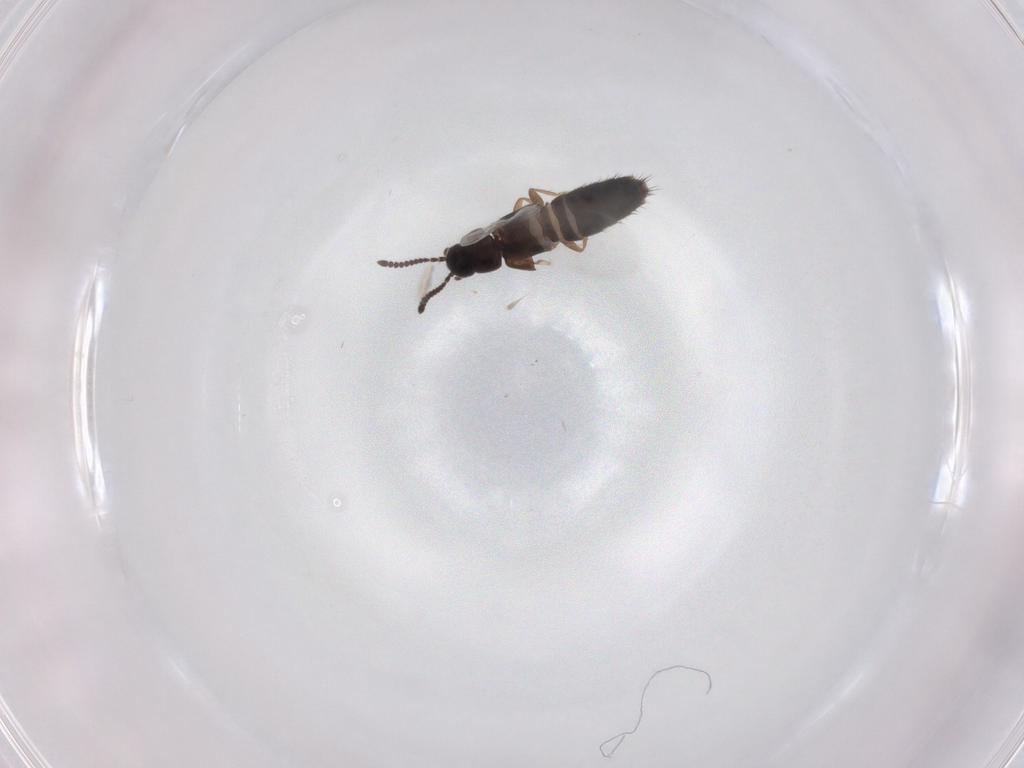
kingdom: Animalia
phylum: Arthropoda
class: Insecta
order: Coleoptera
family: Staphylinidae
